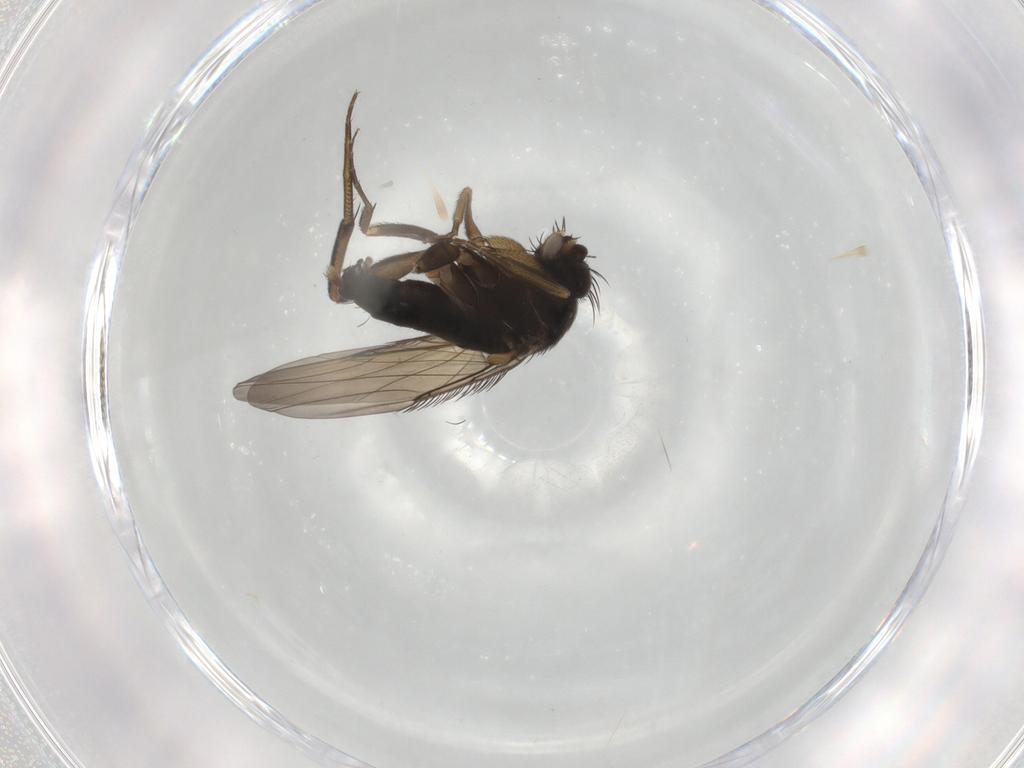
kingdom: Animalia
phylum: Arthropoda
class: Insecta
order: Diptera
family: Phoridae
